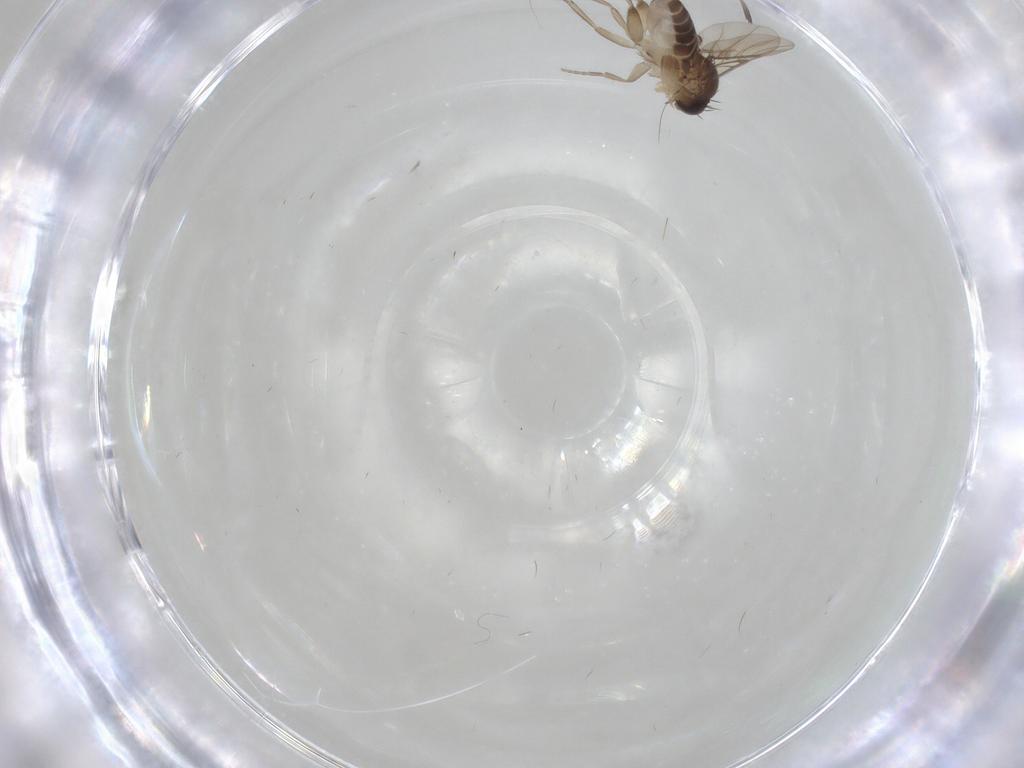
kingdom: Animalia
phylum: Arthropoda
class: Insecta
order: Diptera
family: Phoridae
